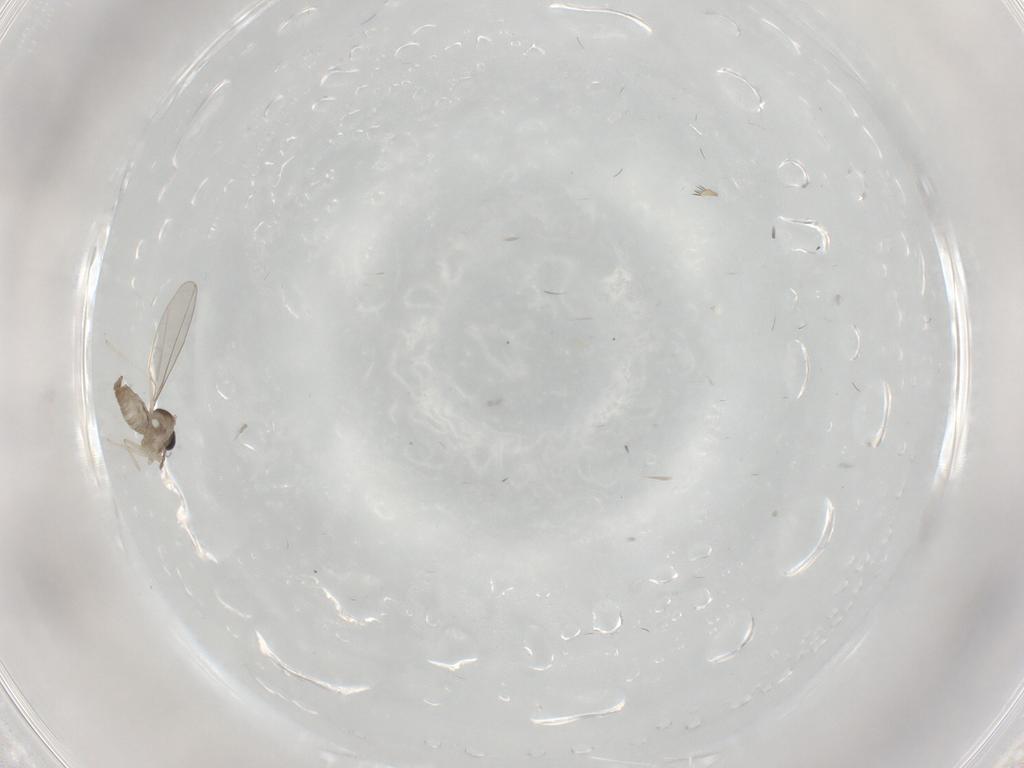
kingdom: Animalia
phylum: Arthropoda
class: Insecta
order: Diptera
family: Cecidomyiidae
